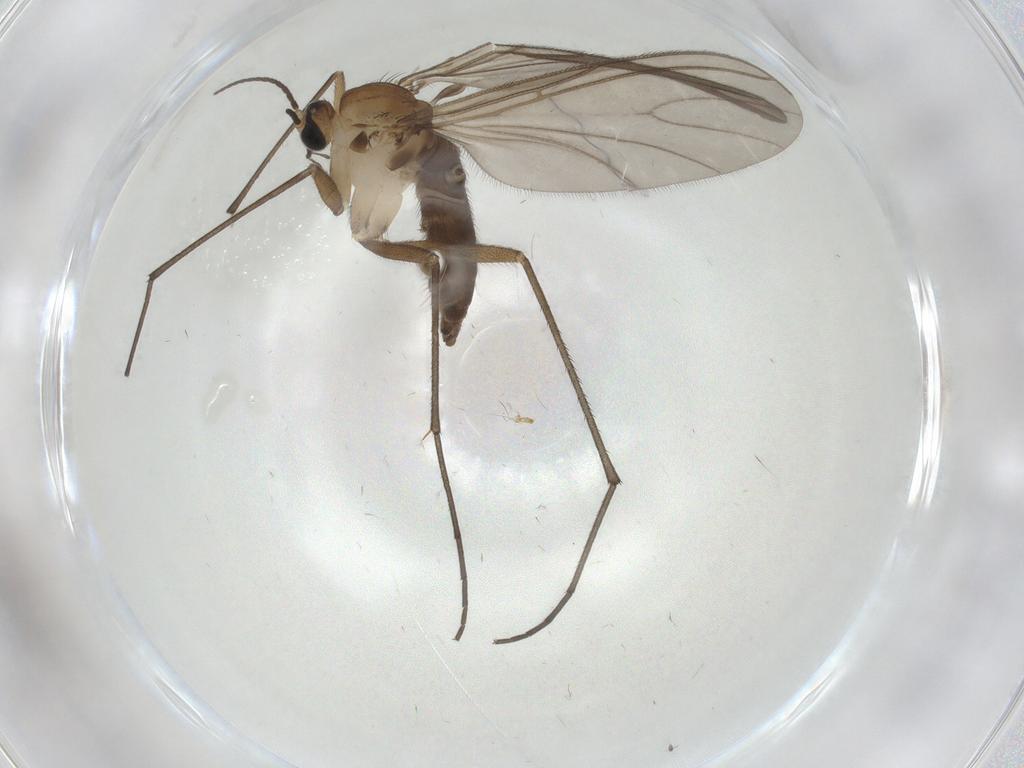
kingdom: Animalia
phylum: Arthropoda
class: Insecta
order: Diptera
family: Sciaridae
